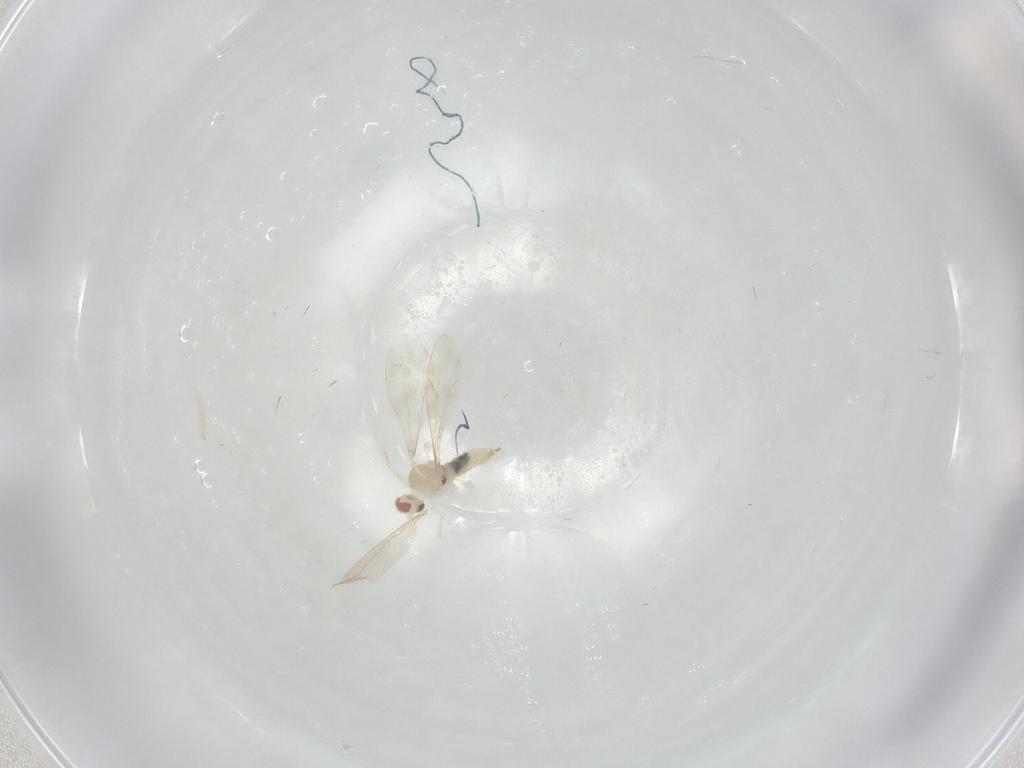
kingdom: Animalia
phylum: Arthropoda
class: Insecta
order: Diptera
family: Cecidomyiidae
